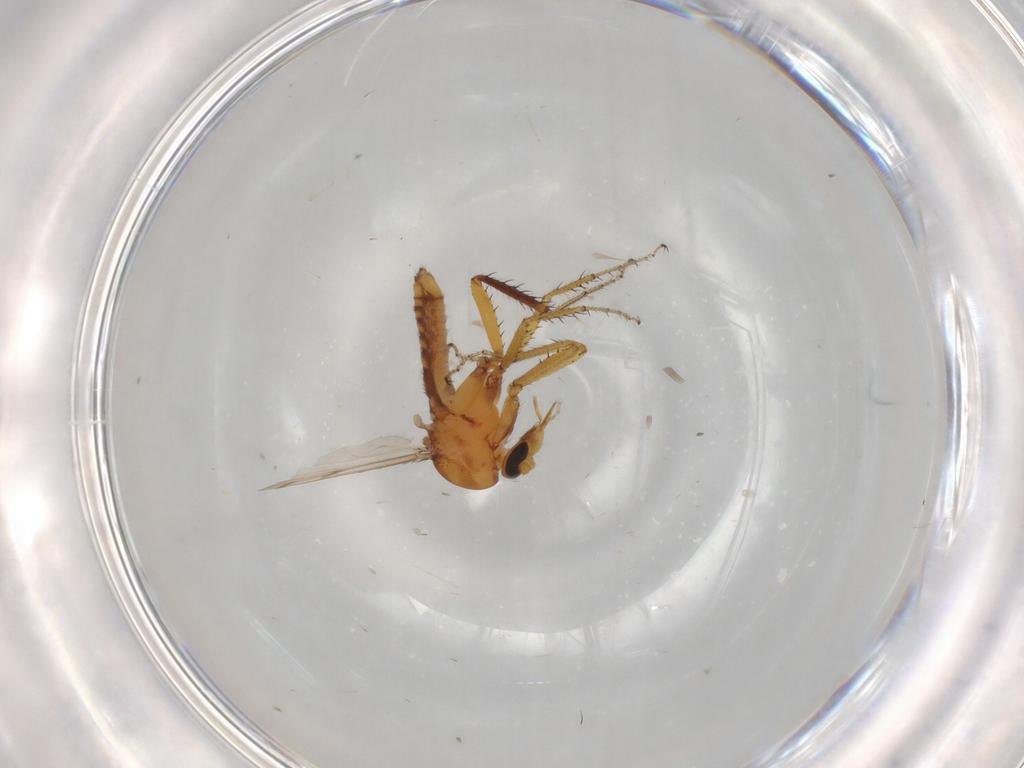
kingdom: Animalia
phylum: Arthropoda
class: Insecta
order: Diptera
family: Ceratopogonidae
